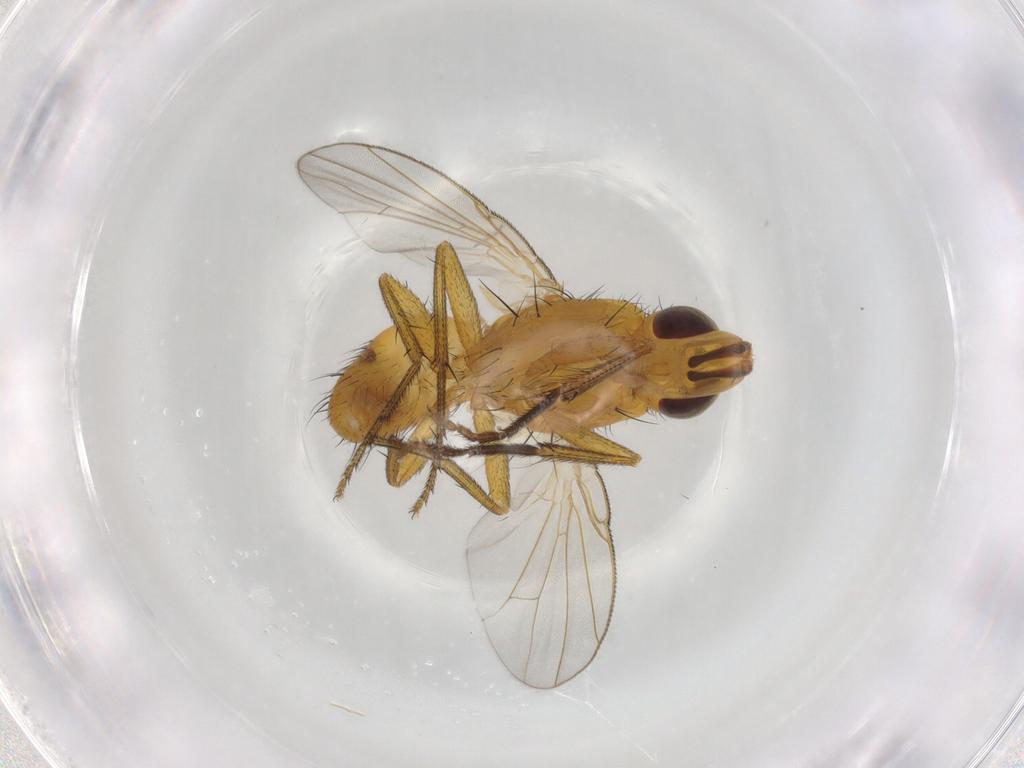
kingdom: Animalia
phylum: Arthropoda
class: Insecta
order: Diptera
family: Muscidae
